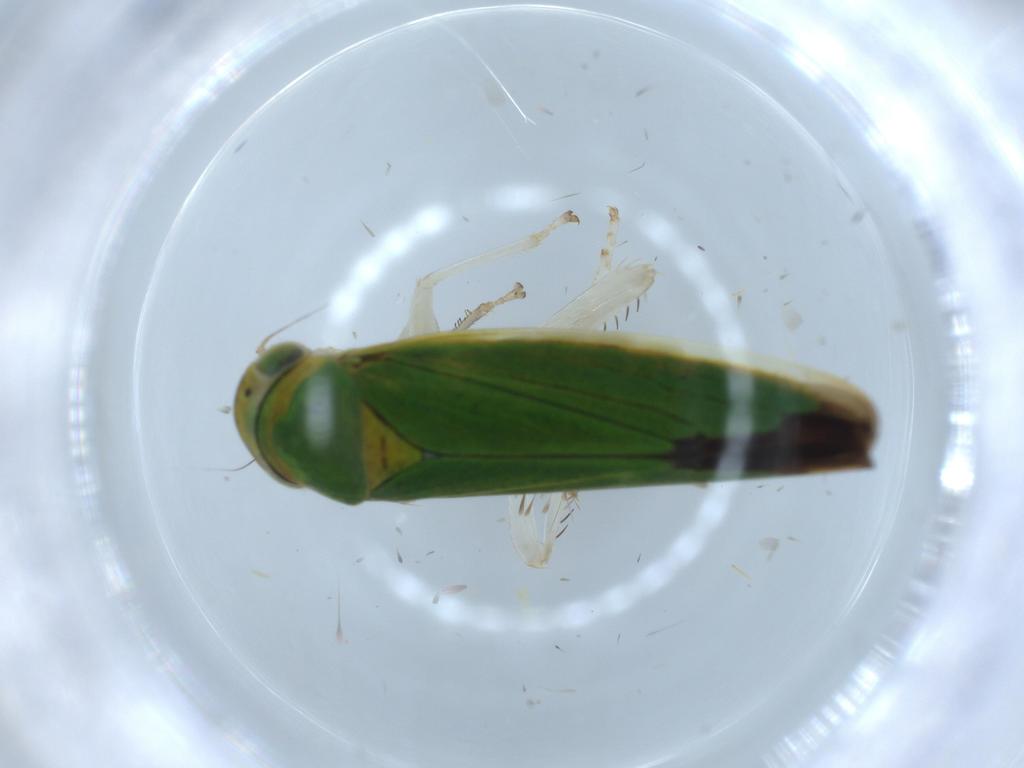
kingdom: Animalia
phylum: Arthropoda
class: Insecta
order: Hemiptera
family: Cicadellidae
